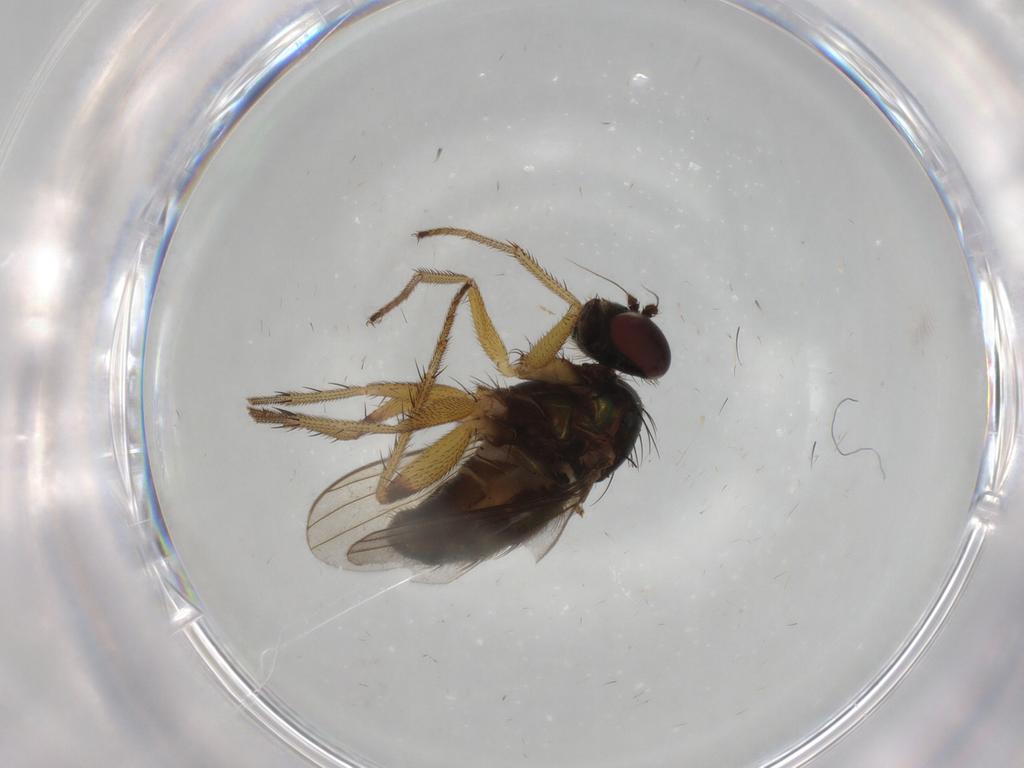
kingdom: Animalia
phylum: Arthropoda
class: Insecta
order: Diptera
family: Dolichopodidae
